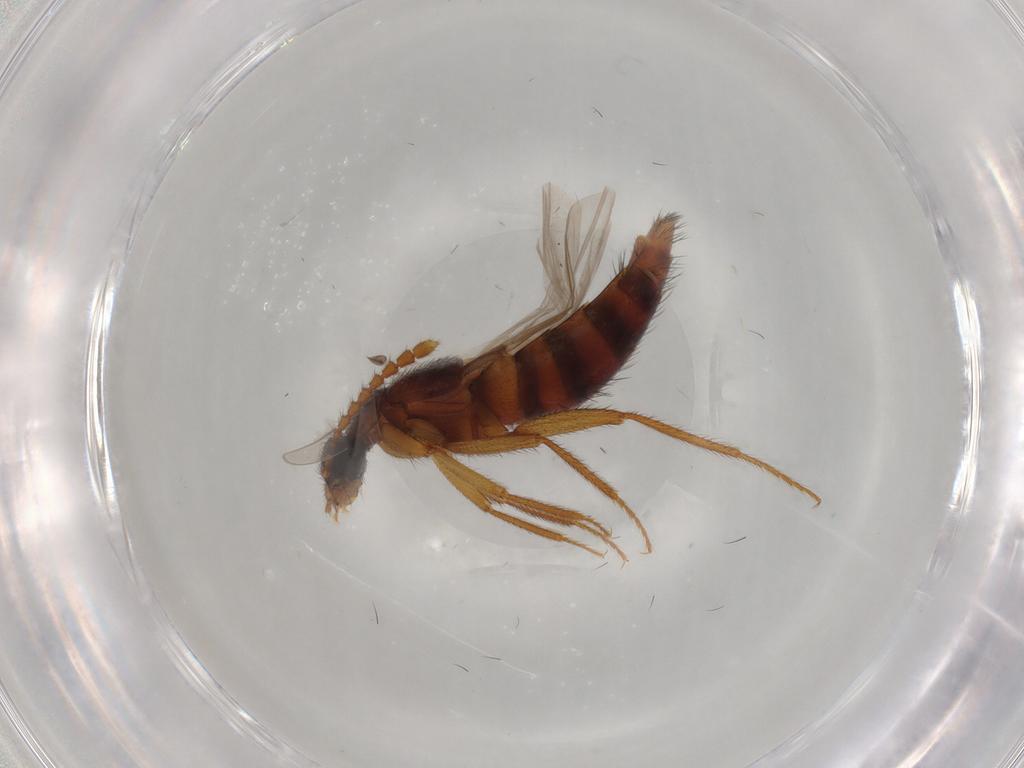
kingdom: Animalia
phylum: Arthropoda
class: Insecta
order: Coleoptera
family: Staphylinidae
